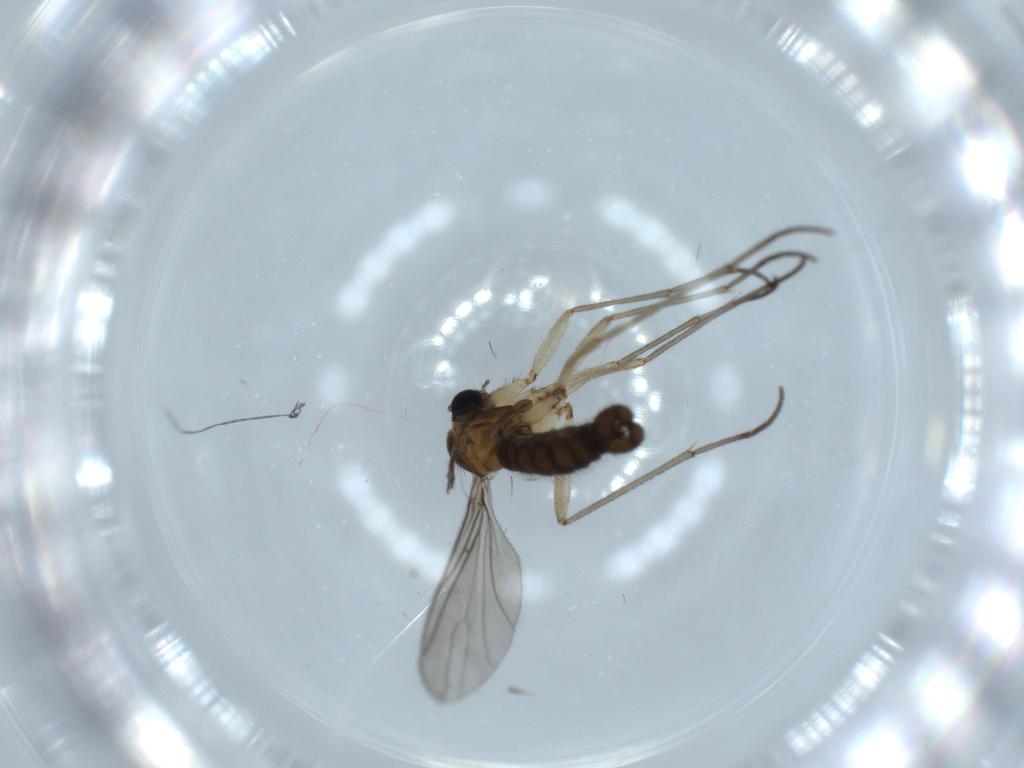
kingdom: Animalia
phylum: Arthropoda
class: Insecta
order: Diptera
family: Sciaridae
